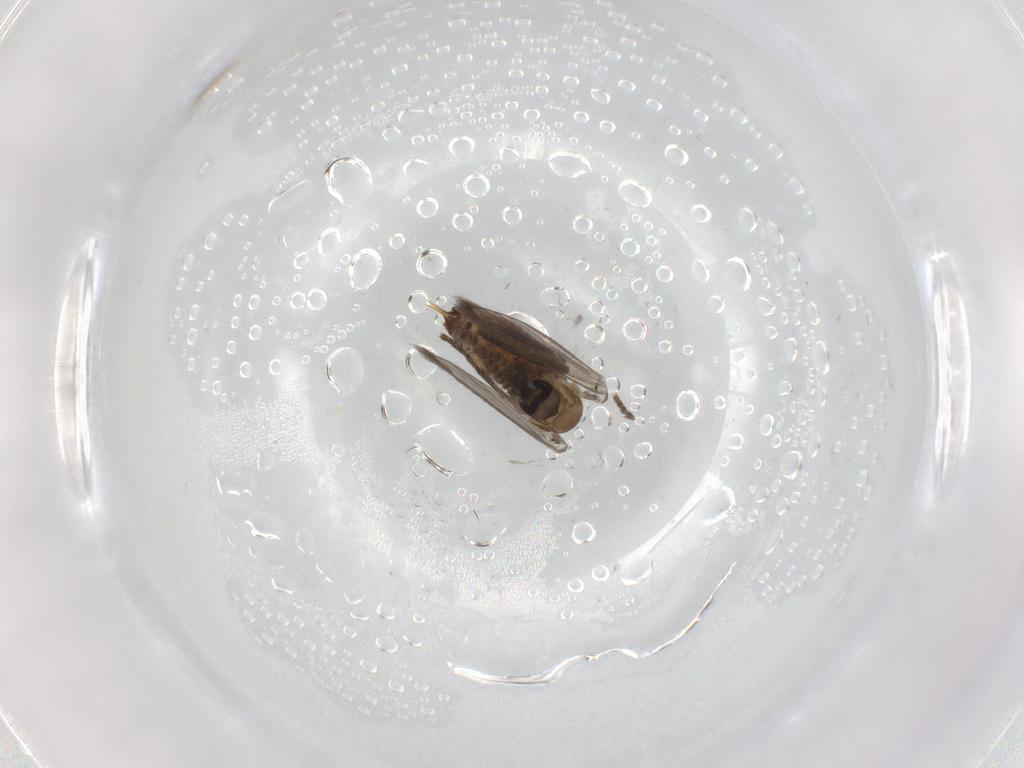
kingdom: Animalia
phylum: Arthropoda
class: Insecta
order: Diptera
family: Psychodidae
